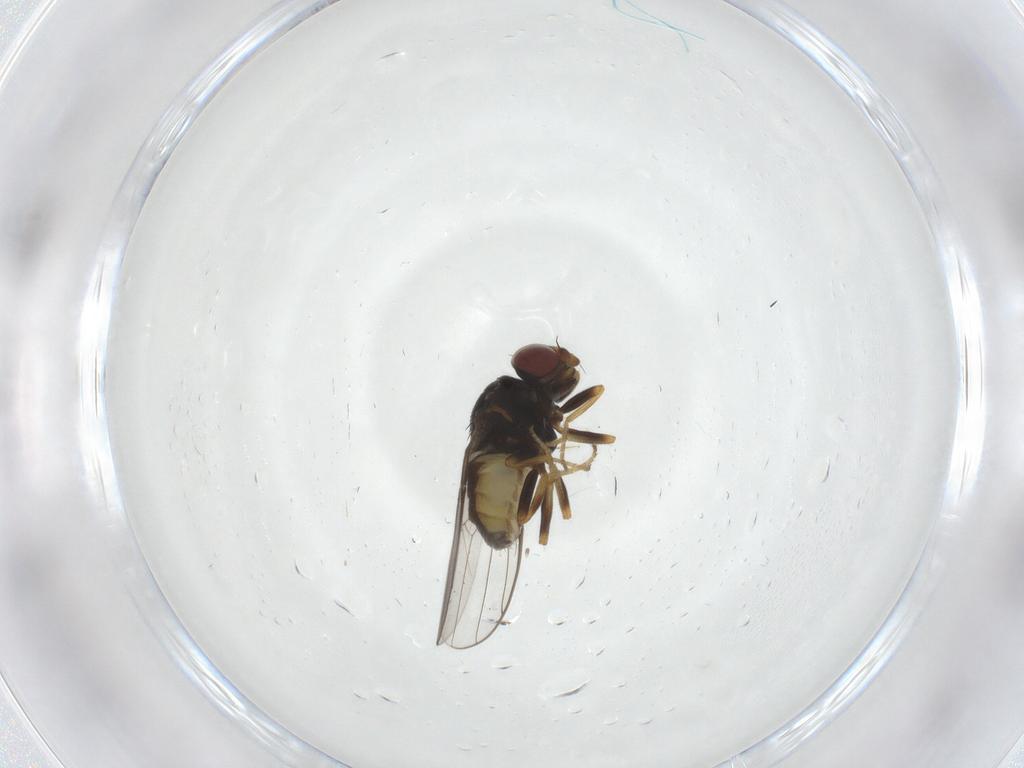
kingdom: Animalia
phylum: Arthropoda
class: Insecta
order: Diptera
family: Chloropidae
